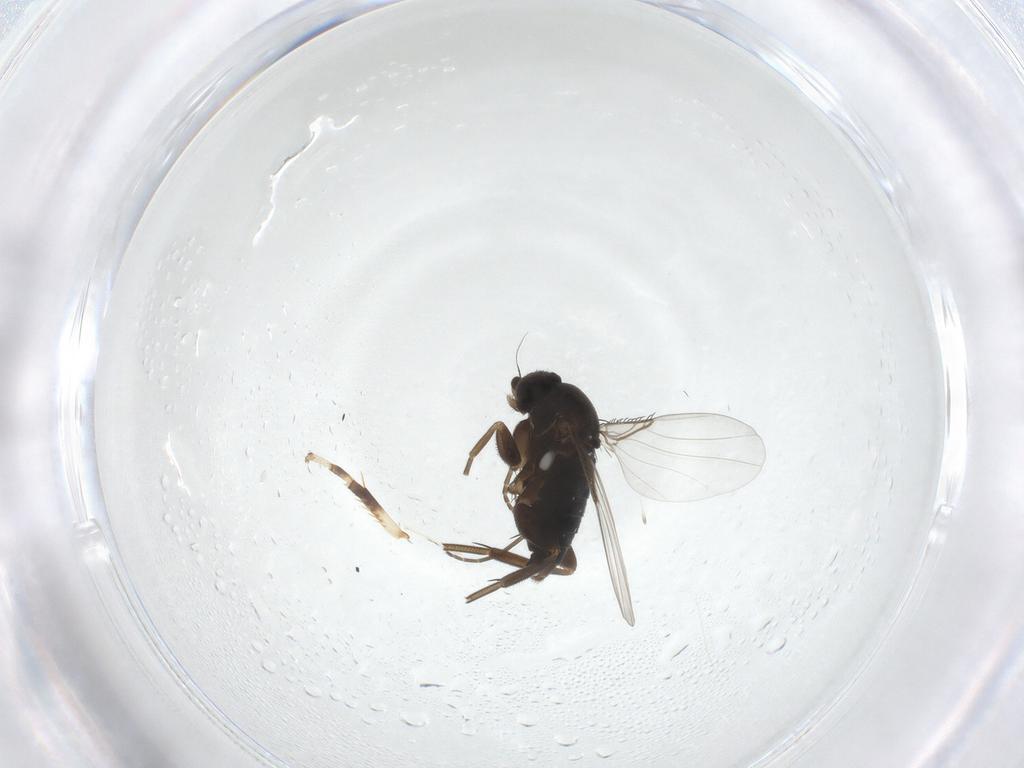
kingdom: Animalia
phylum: Arthropoda
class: Insecta
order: Diptera
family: Phoridae
